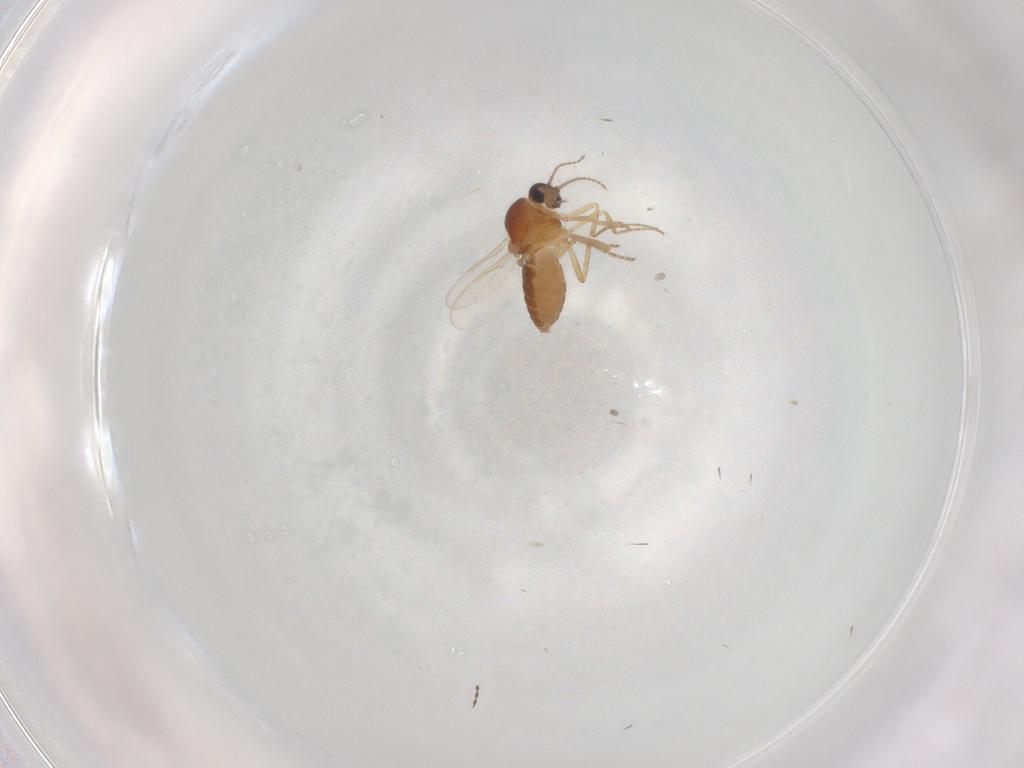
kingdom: Animalia
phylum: Arthropoda
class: Insecta
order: Diptera
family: Ceratopogonidae
